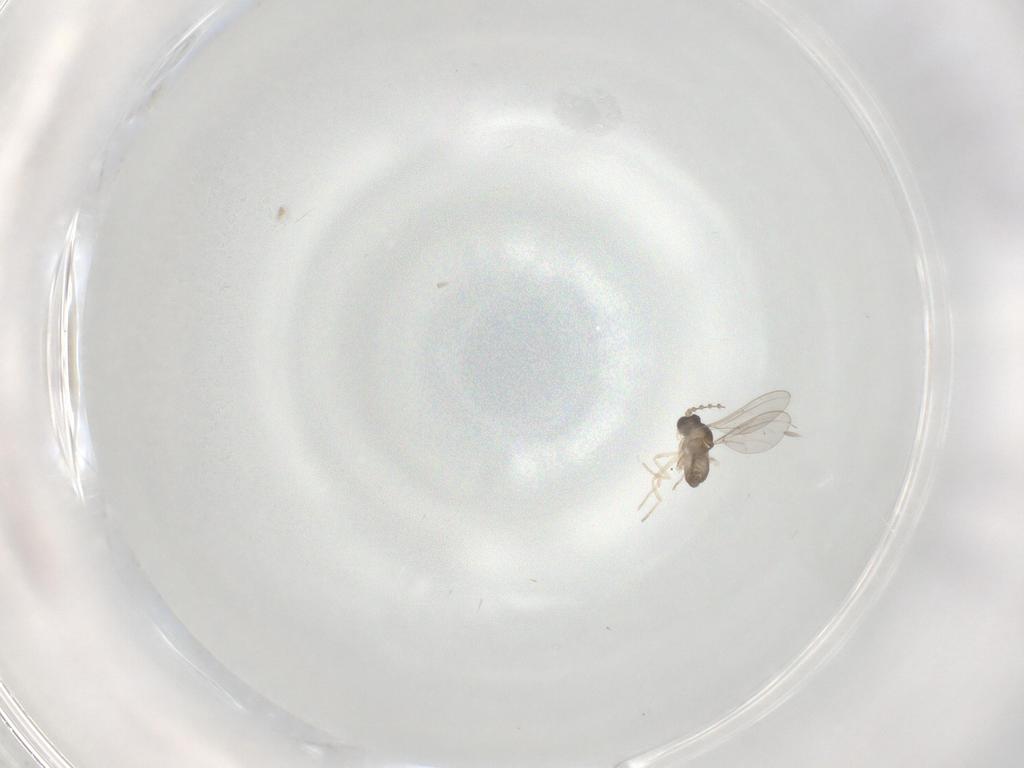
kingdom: Animalia
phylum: Arthropoda
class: Insecta
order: Diptera
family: Cecidomyiidae
